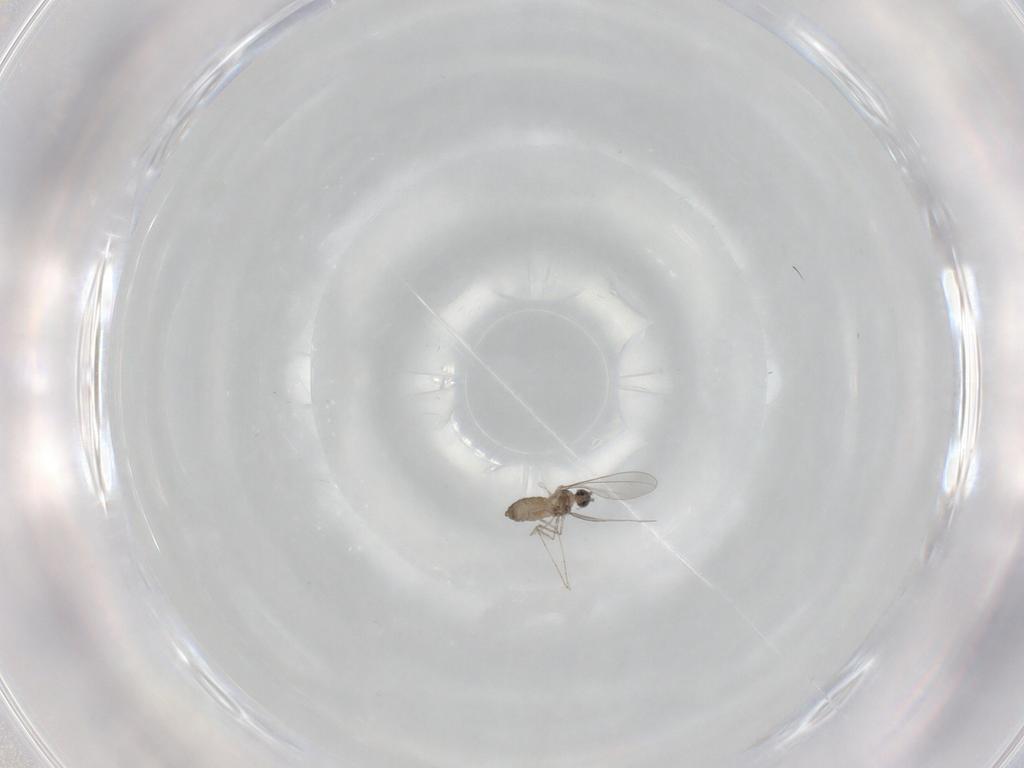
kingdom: Animalia
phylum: Arthropoda
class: Insecta
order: Diptera
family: Cecidomyiidae
